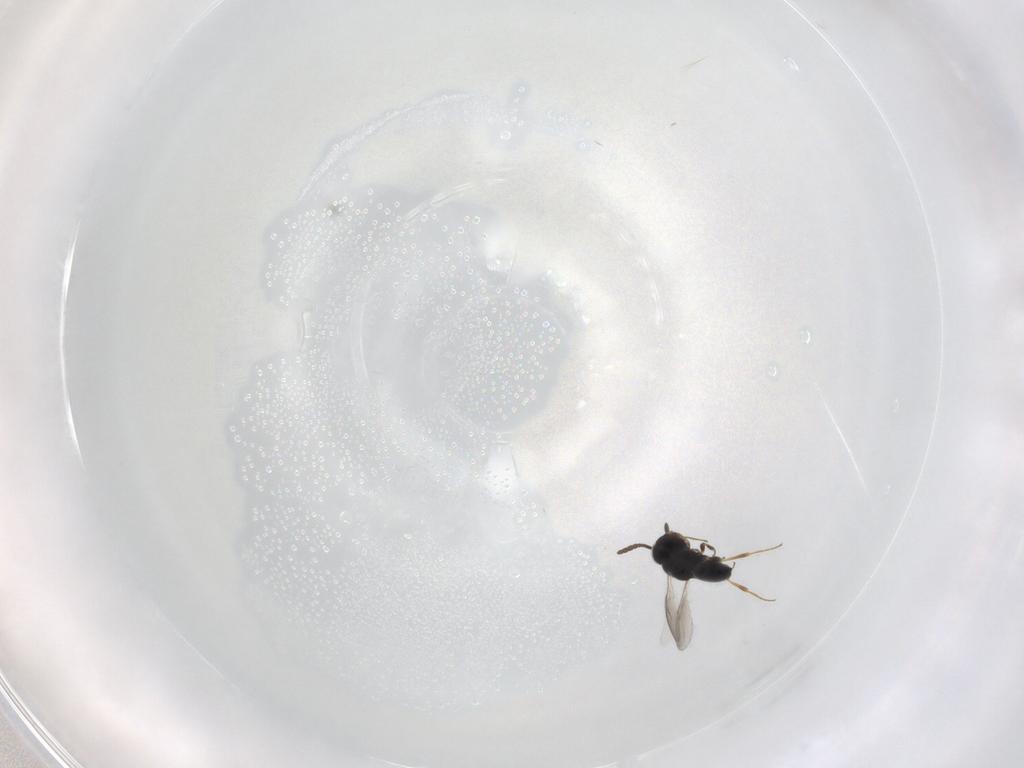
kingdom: Animalia
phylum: Arthropoda
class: Insecta
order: Hymenoptera
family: Scelionidae
